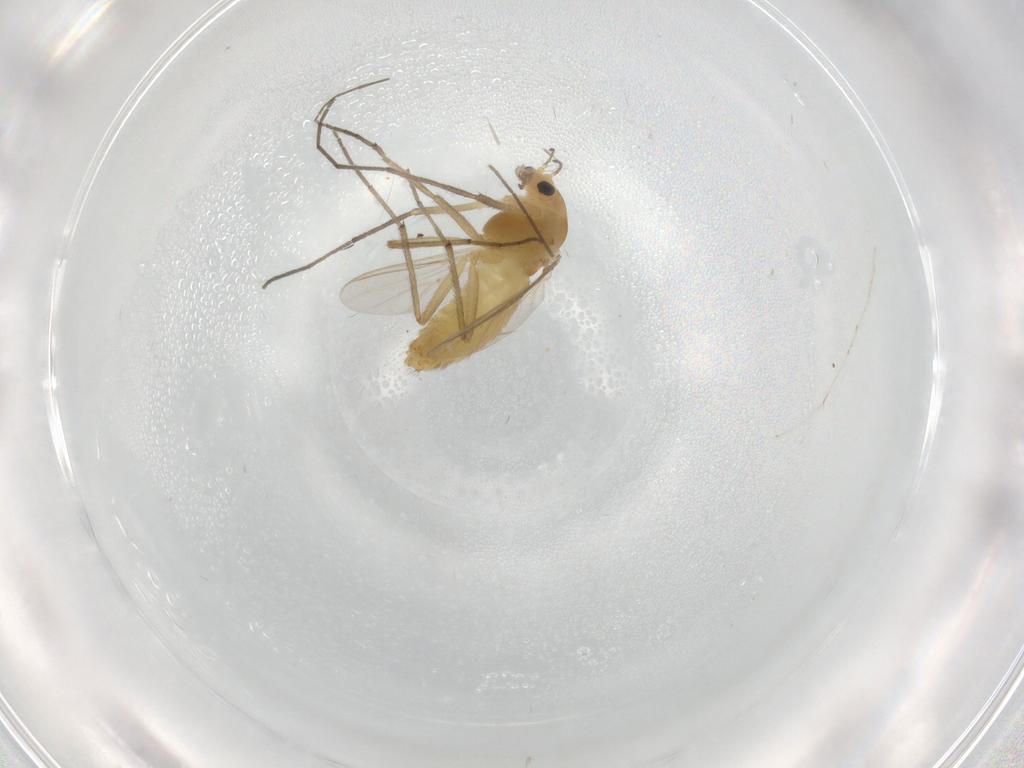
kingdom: Animalia
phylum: Arthropoda
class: Insecta
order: Diptera
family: Chironomidae
